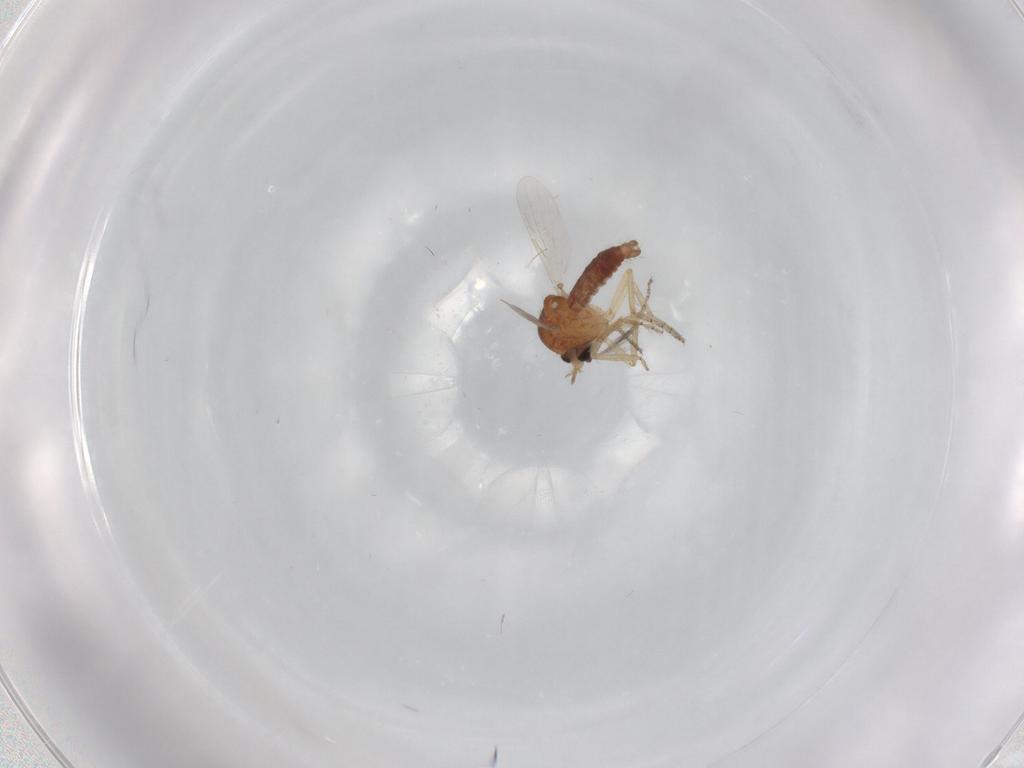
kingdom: Animalia
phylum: Arthropoda
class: Insecta
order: Diptera
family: Ceratopogonidae
